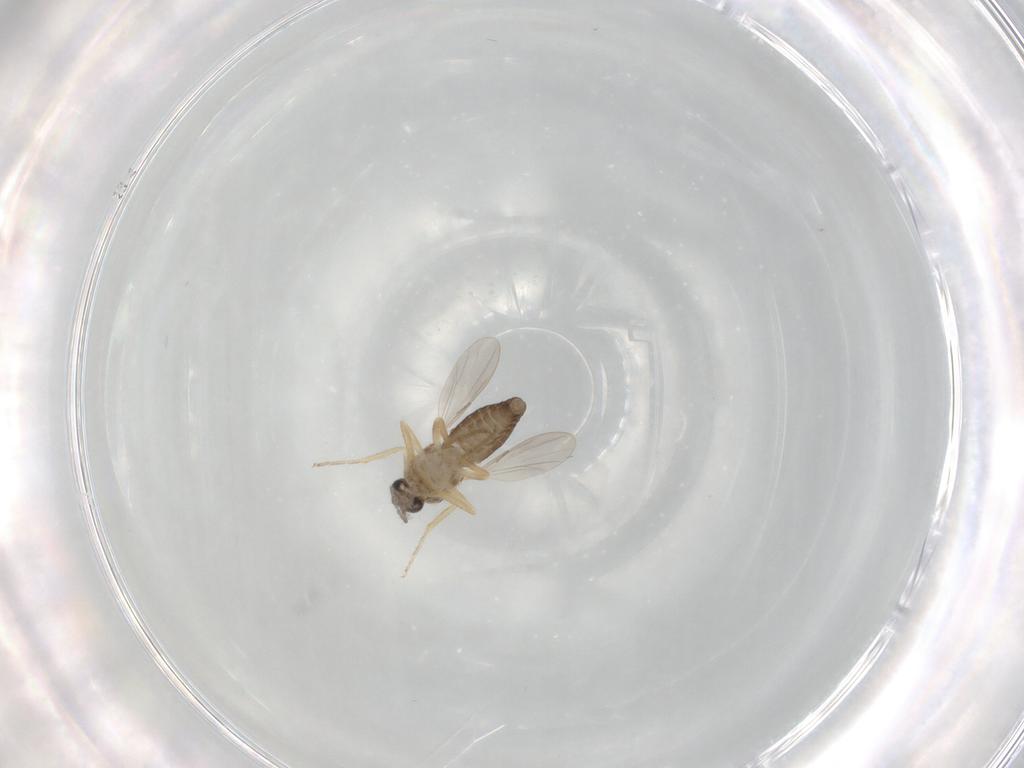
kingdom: Animalia
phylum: Arthropoda
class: Insecta
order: Diptera
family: Ceratopogonidae
